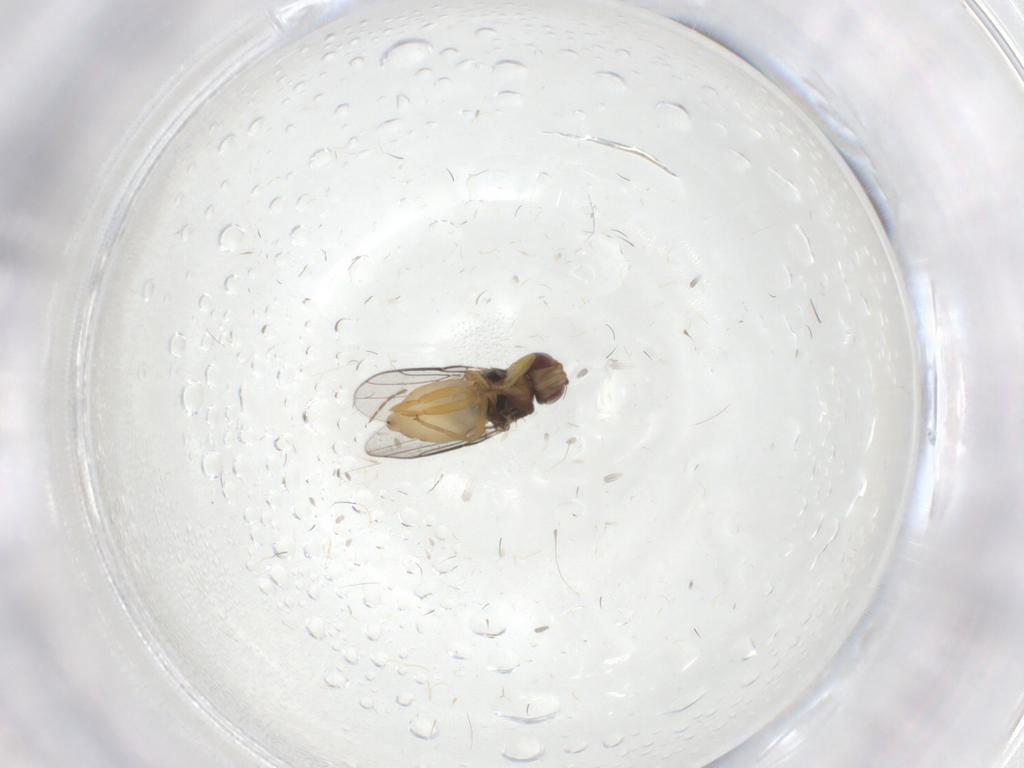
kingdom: Animalia
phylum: Arthropoda
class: Insecta
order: Diptera
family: Chloropidae
